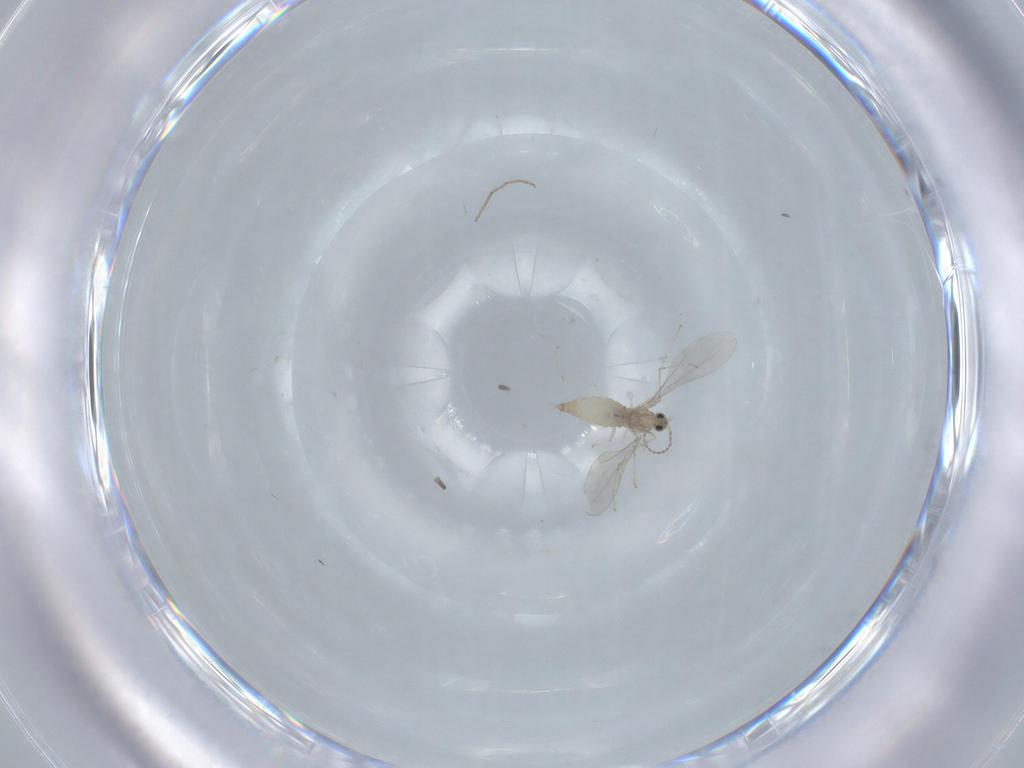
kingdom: Animalia
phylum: Arthropoda
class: Insecta
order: Diptera
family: Cecidomyiidae
